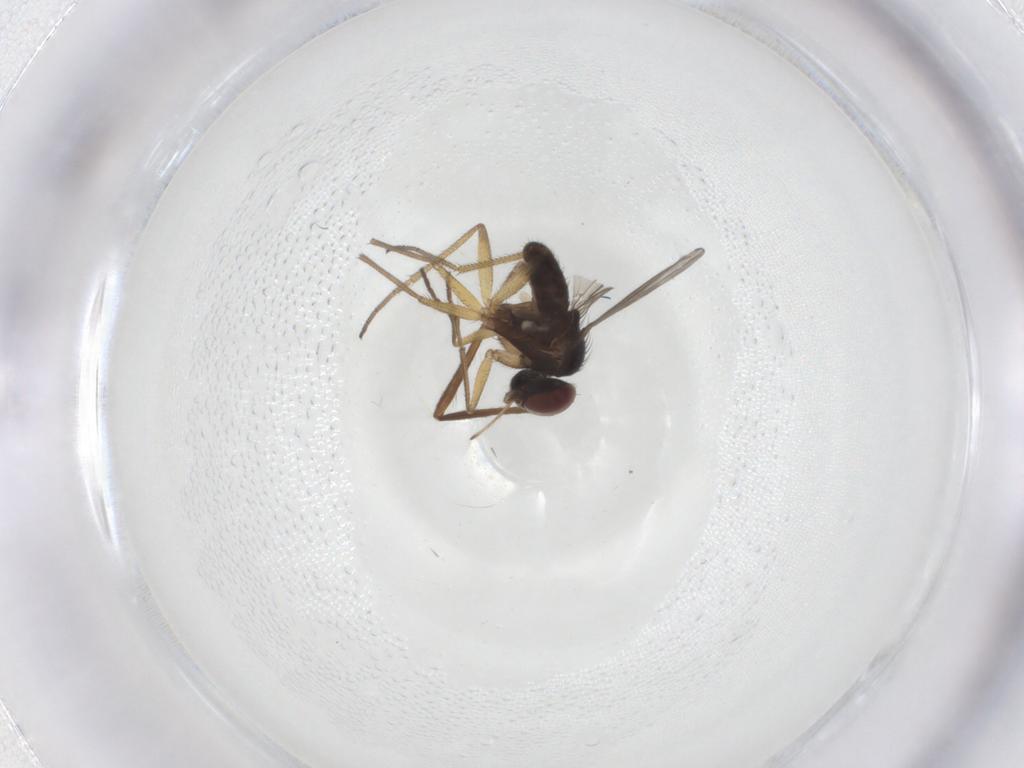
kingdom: Animalia
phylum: Arthropoda
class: Insecta
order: Diptera
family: Dolichopodidae
